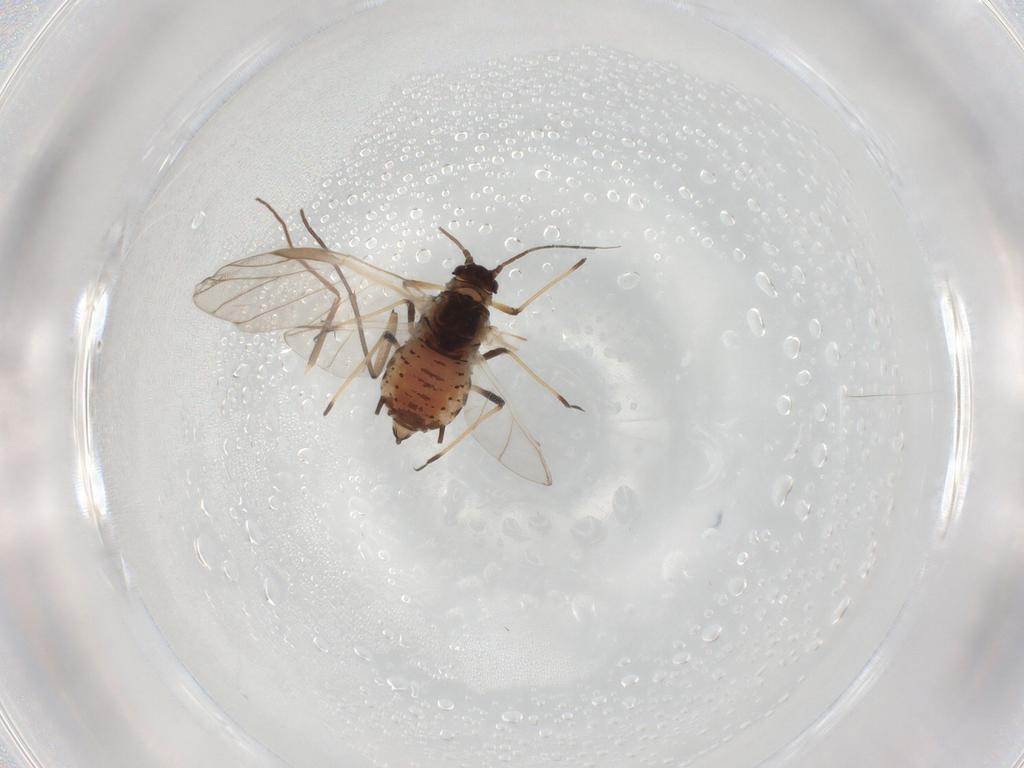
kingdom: Animalia
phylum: Arthropoda
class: Insecta
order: Hemiptera
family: Aphididae
